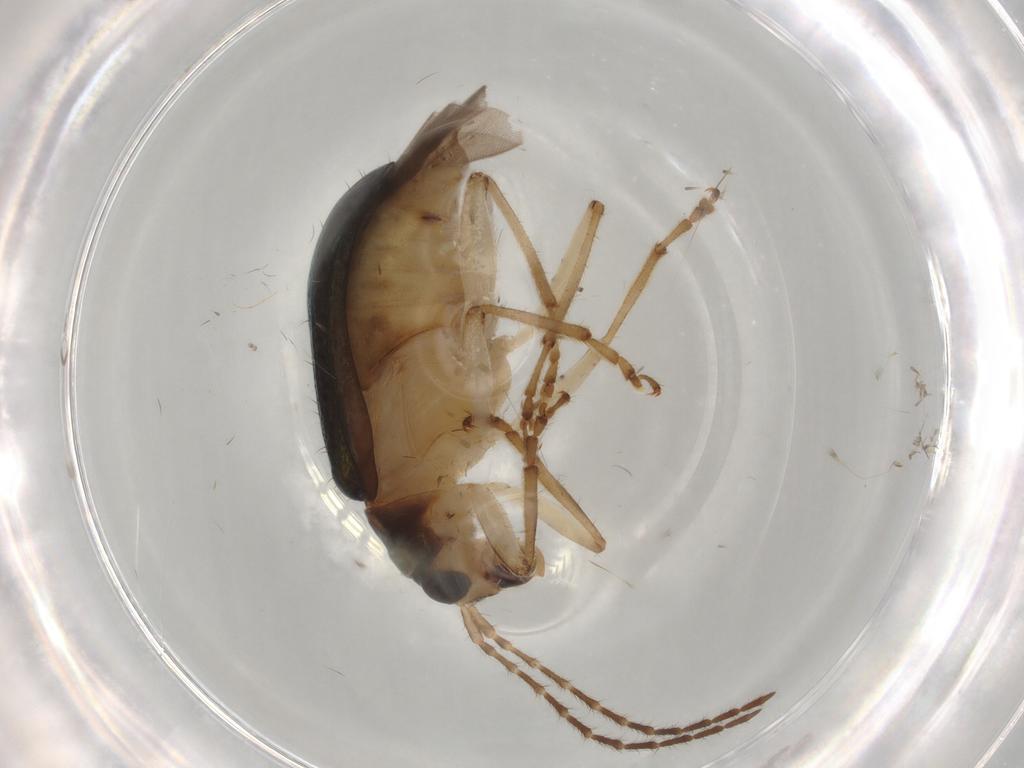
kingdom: Animalia
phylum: Arthropoda
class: Insecta
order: Coleoptera
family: Chrysomelidae
